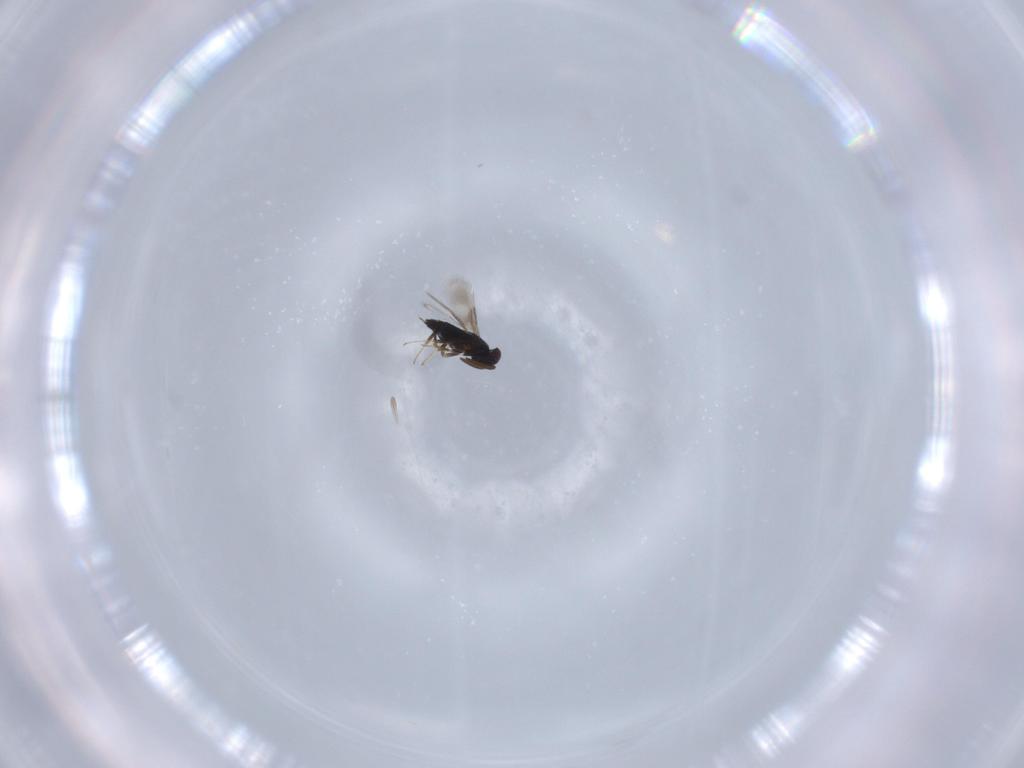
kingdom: Animalia
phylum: Arthropoda
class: Insecta
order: Hymenoptera
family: Signiphoridae
